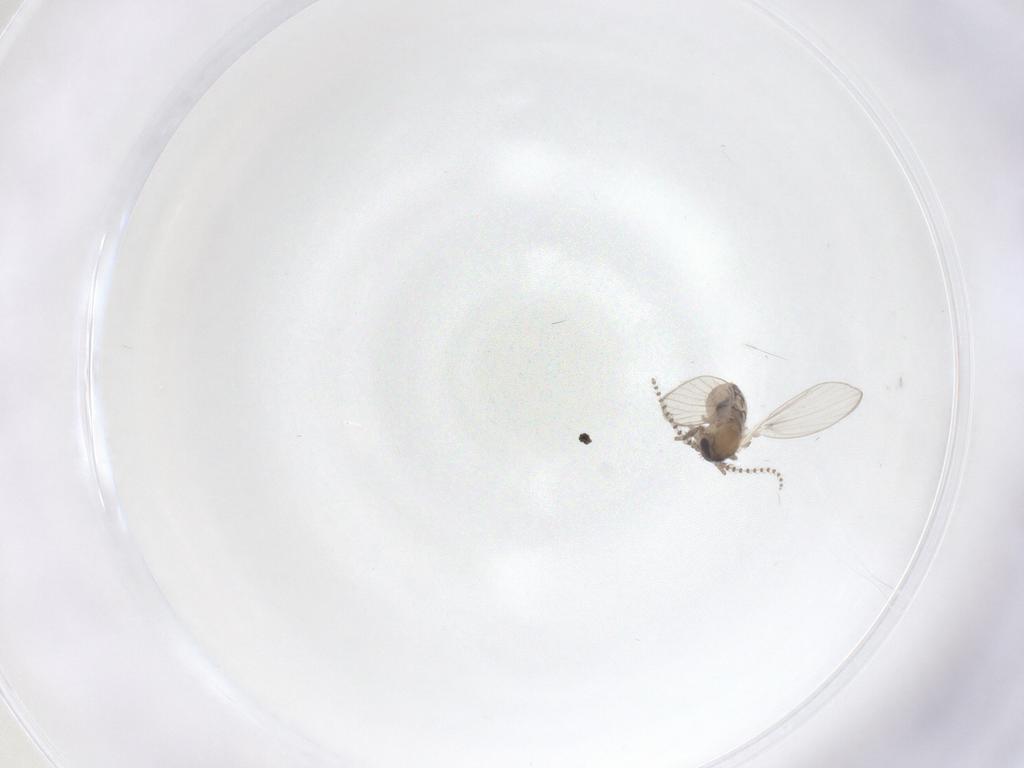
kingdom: Animalia
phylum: Arthropoda
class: Insecta
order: Diptera
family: Psychodidae
